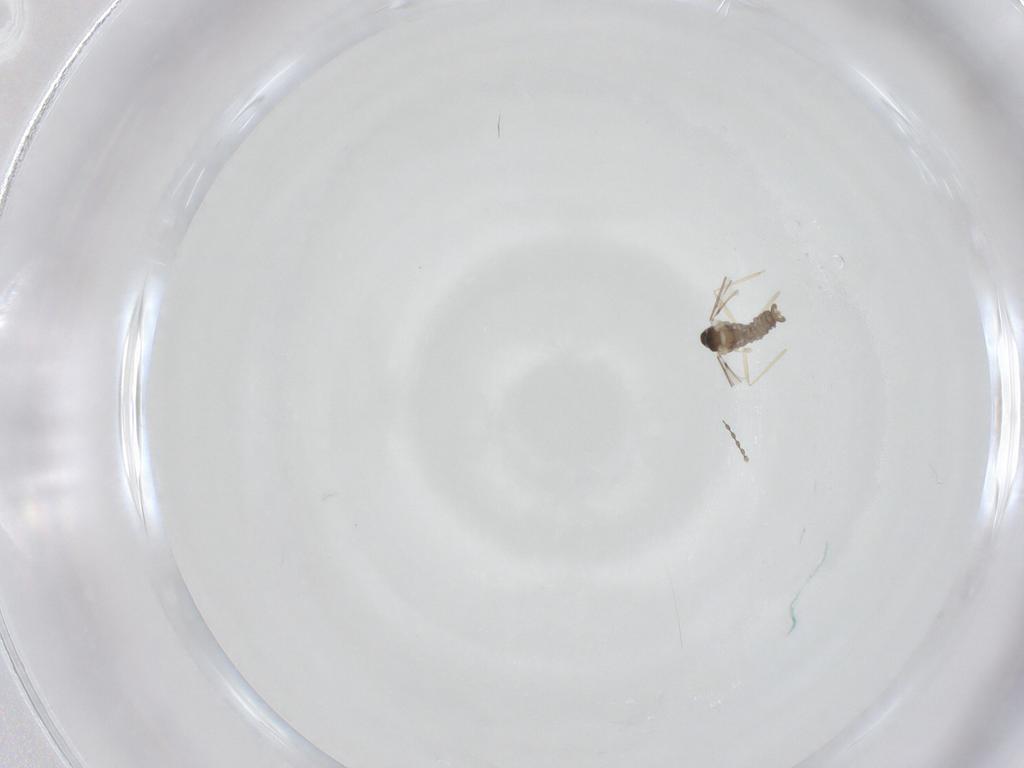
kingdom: Animalia
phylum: Arthropoda
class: Insecta
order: Diptera
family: Cecidomyiidae
